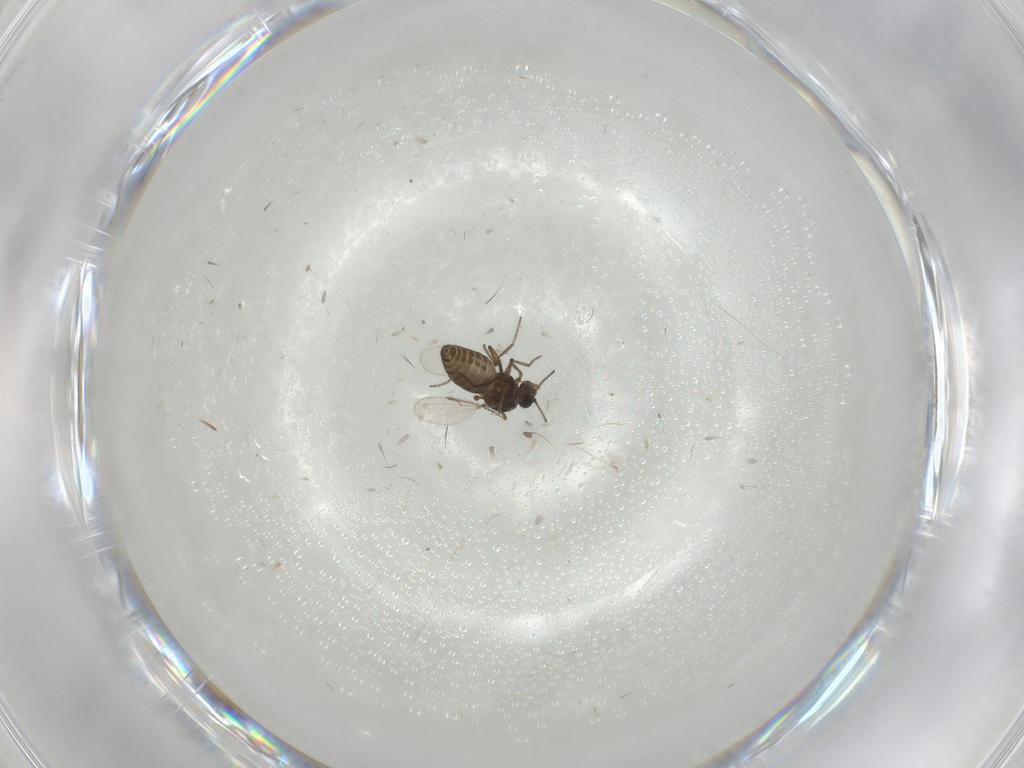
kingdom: Animalia
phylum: Arthropoda
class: Insecta
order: Diptera
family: Ceratopogonidae
